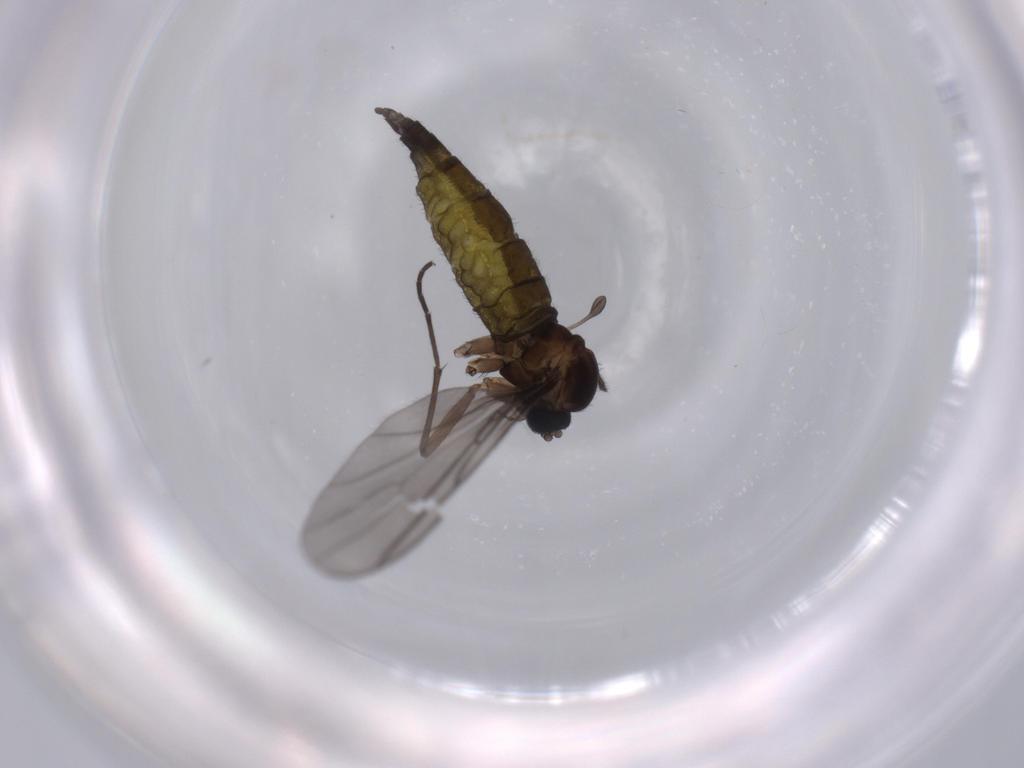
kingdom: Animalia
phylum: Arthropoda
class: Insecta
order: Diptera
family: Sciaridae
